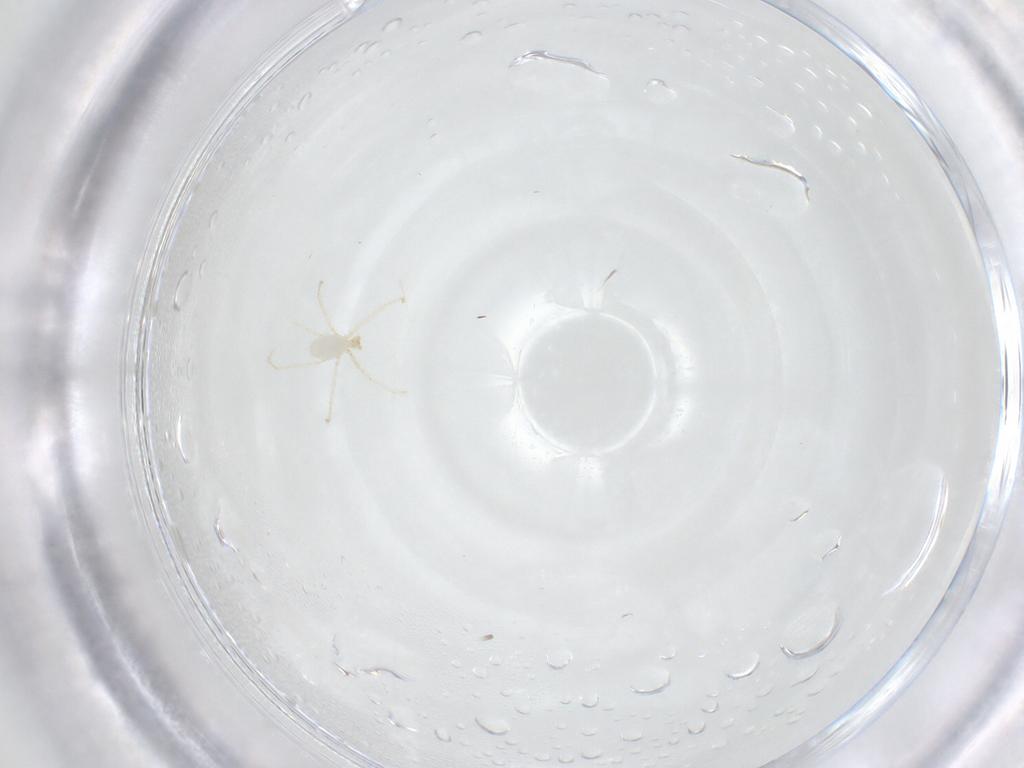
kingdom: Animalia
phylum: Arthropoda
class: Arachnida
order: Trombidiformes
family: Erythraeidae
